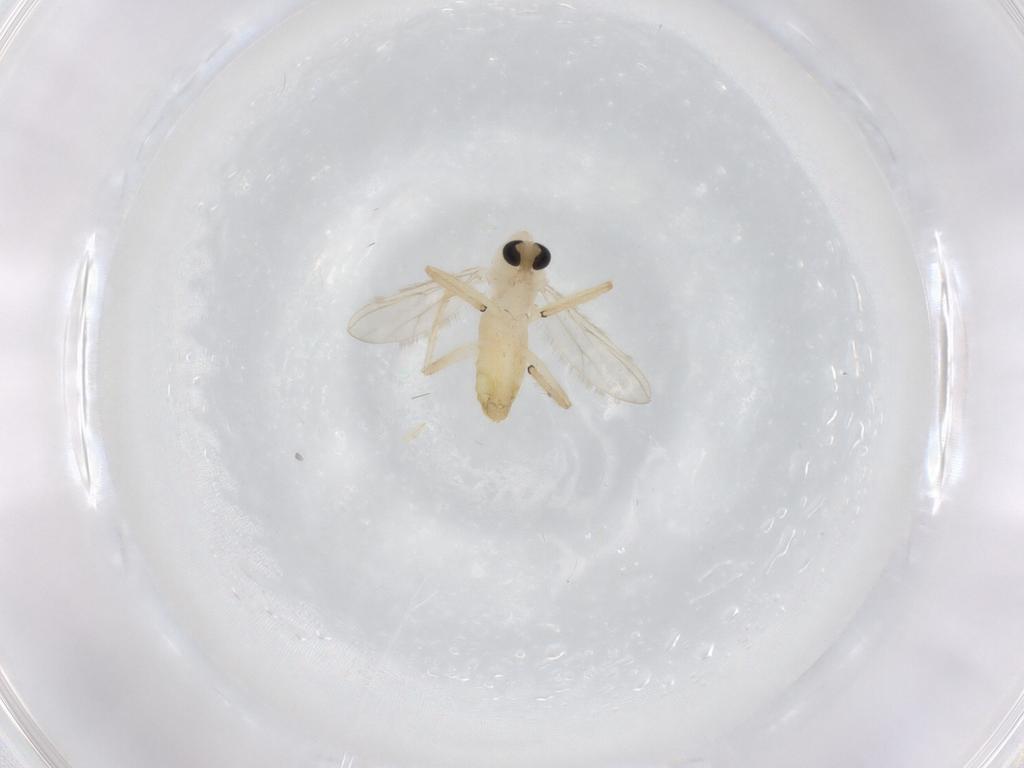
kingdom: Animalia
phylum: Arthropoda
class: Insecta
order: Diptera
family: Chironomidae
